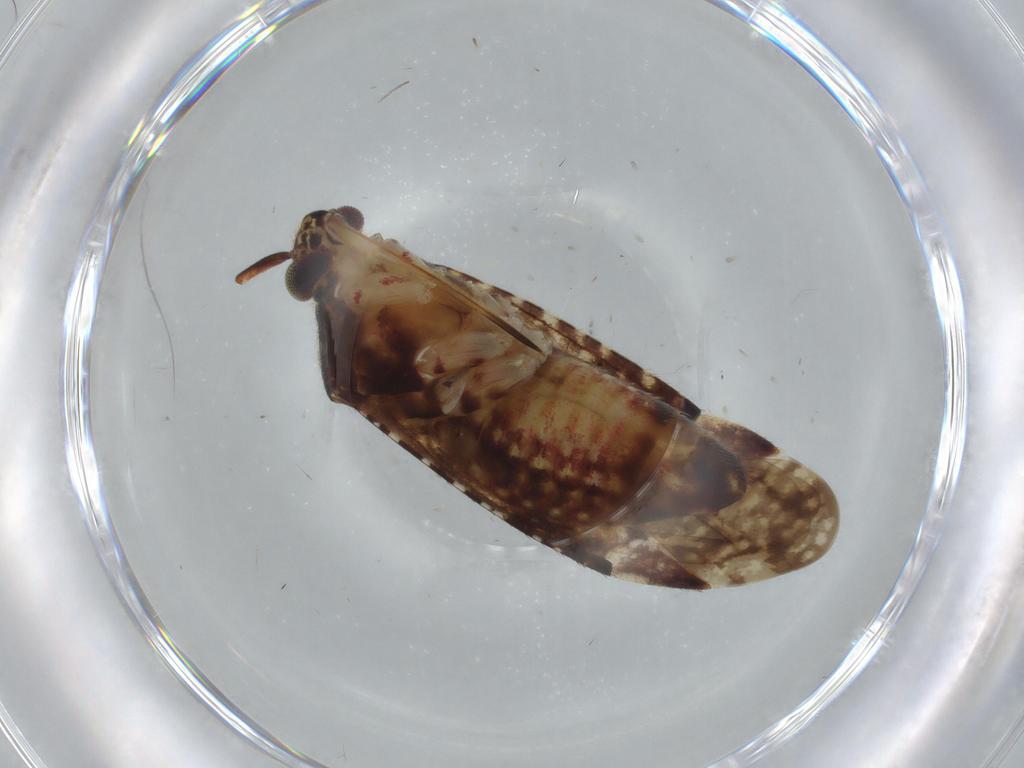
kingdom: Animalia
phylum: Arthropoda
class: Insecta
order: Hemiptera
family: Miridae
